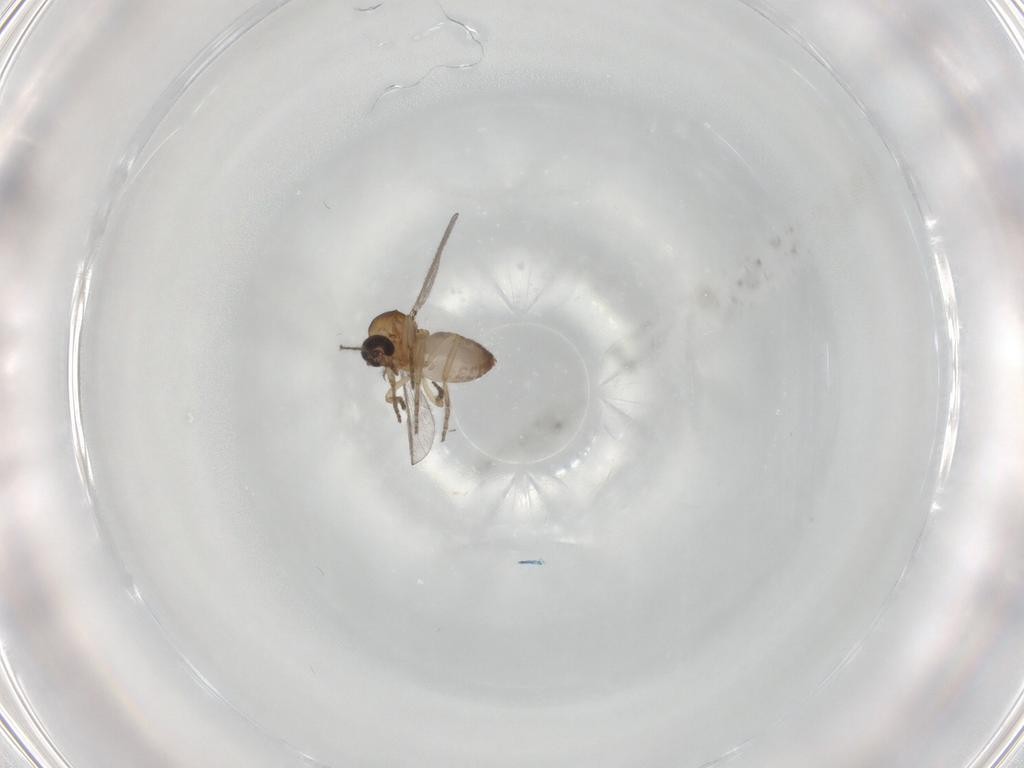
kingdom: Animalia
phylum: Arthropoda
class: Insecta
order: Diptera
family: Ceratopogonidae
